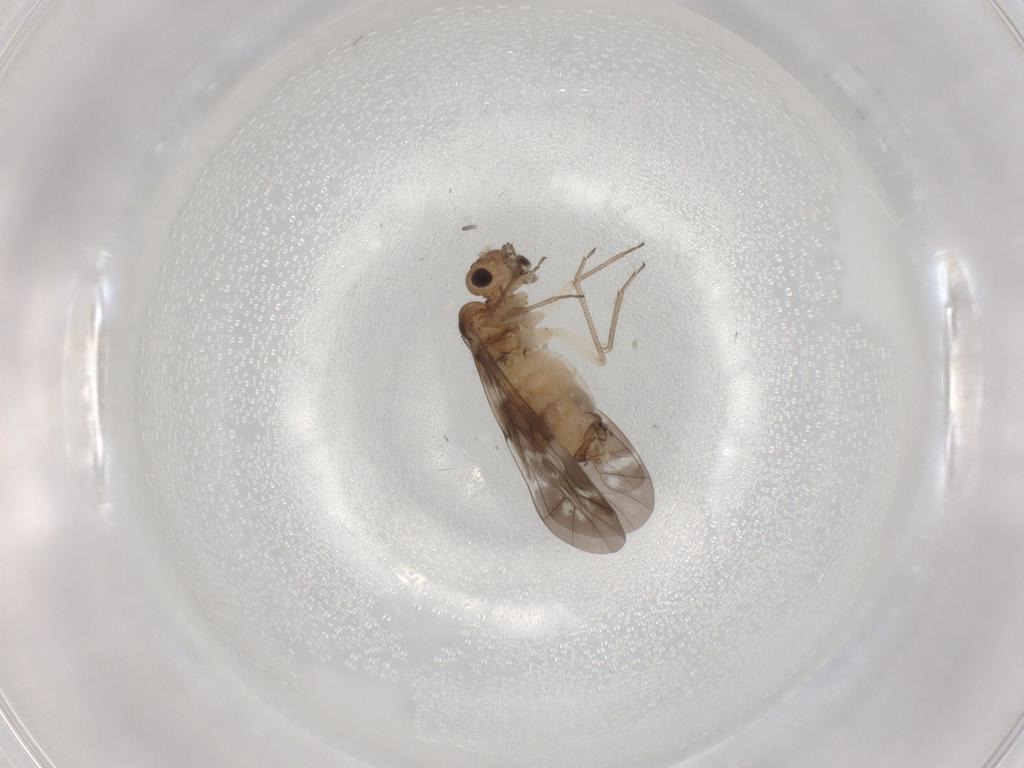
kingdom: Animalia
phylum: Arthropoda
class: Insecta
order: Psocodea
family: Peripsocidae
